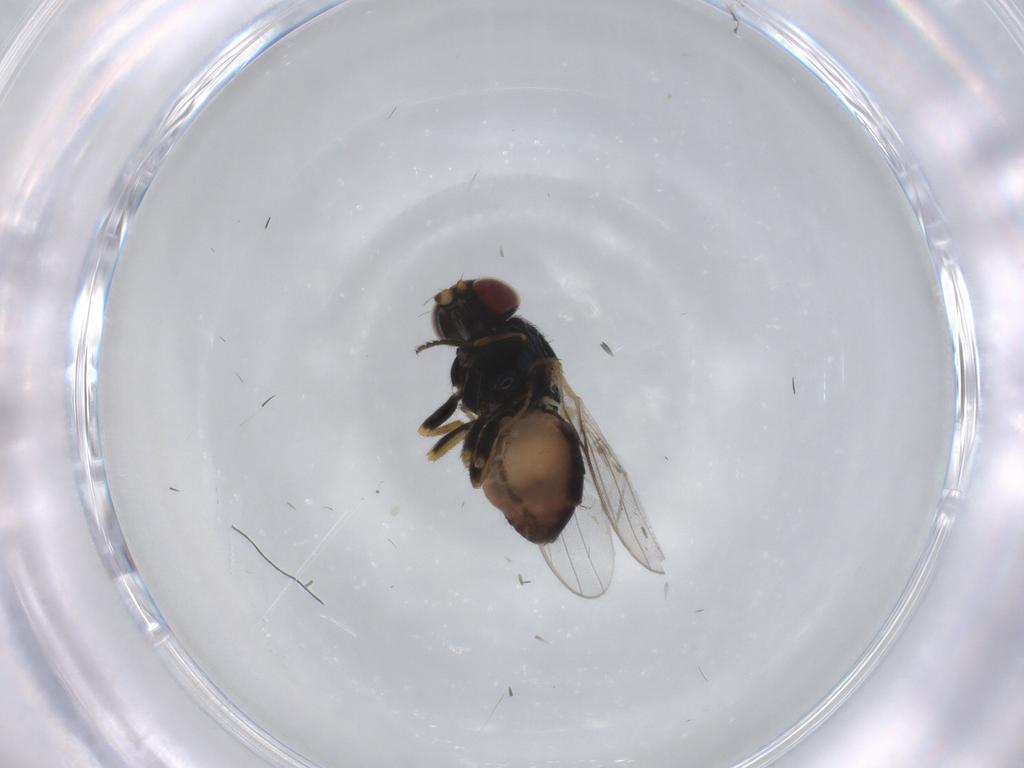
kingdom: Animalia
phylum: Arthropoda
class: Insecta
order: Diptera
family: Chloropidae
